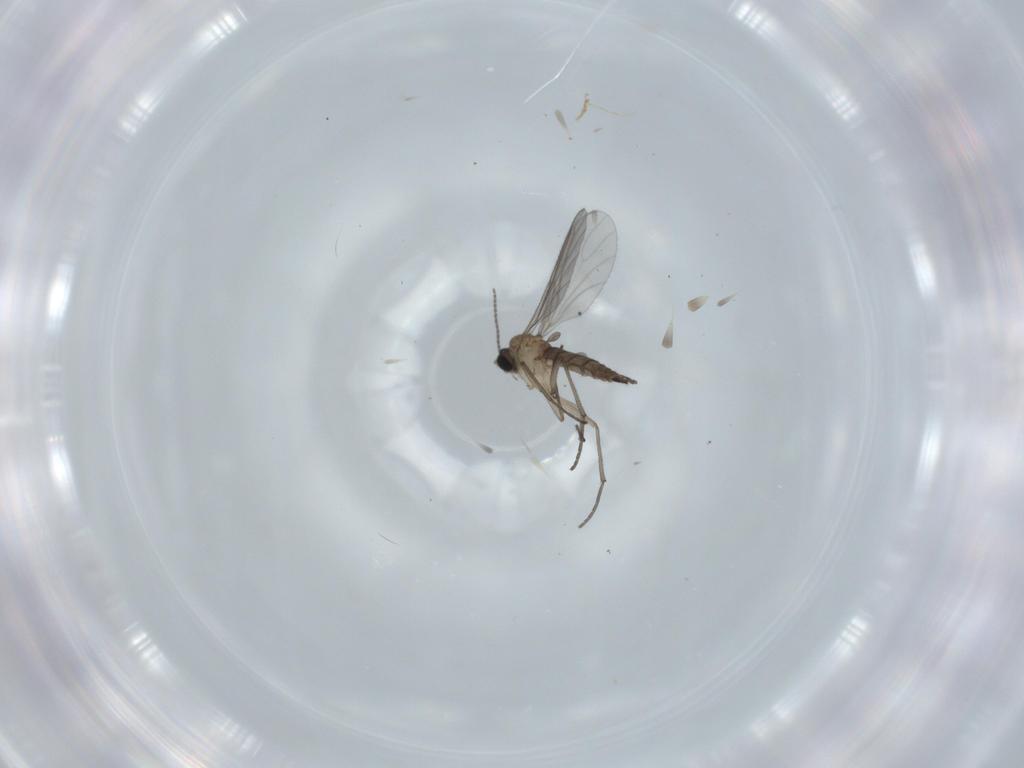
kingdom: Animalia
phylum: Arthropoda
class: Insecta
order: Diptera
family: Sciaridae
